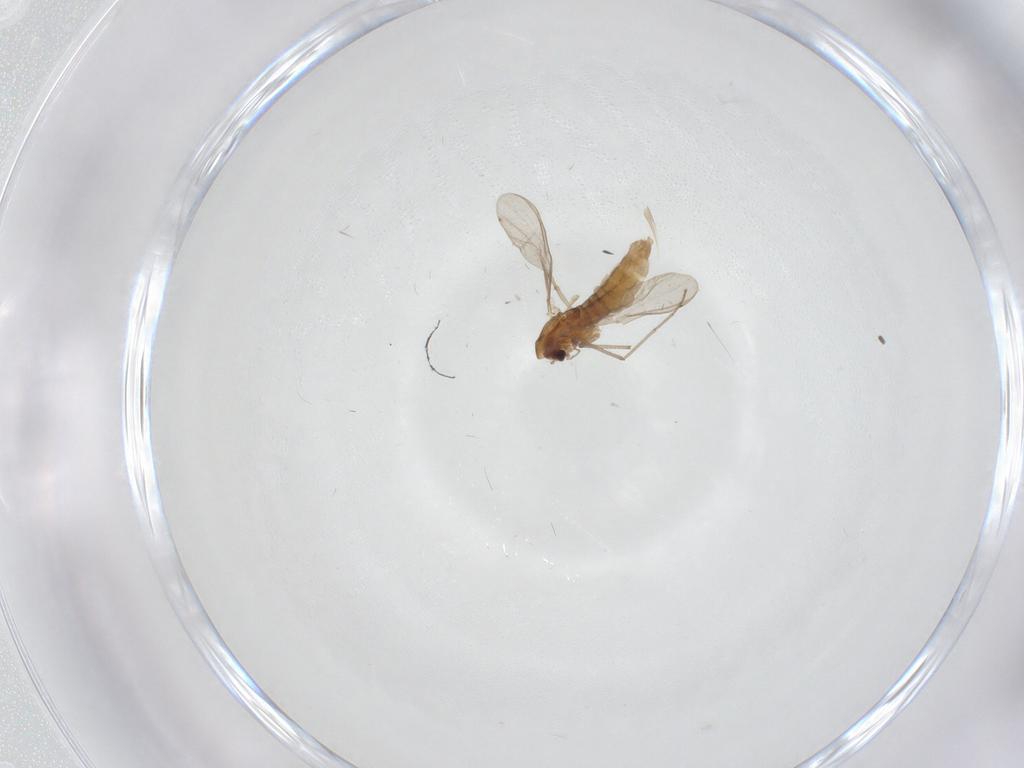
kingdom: Animalia
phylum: Arthropoda
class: Insecta
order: Diptera
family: Chironomidae
